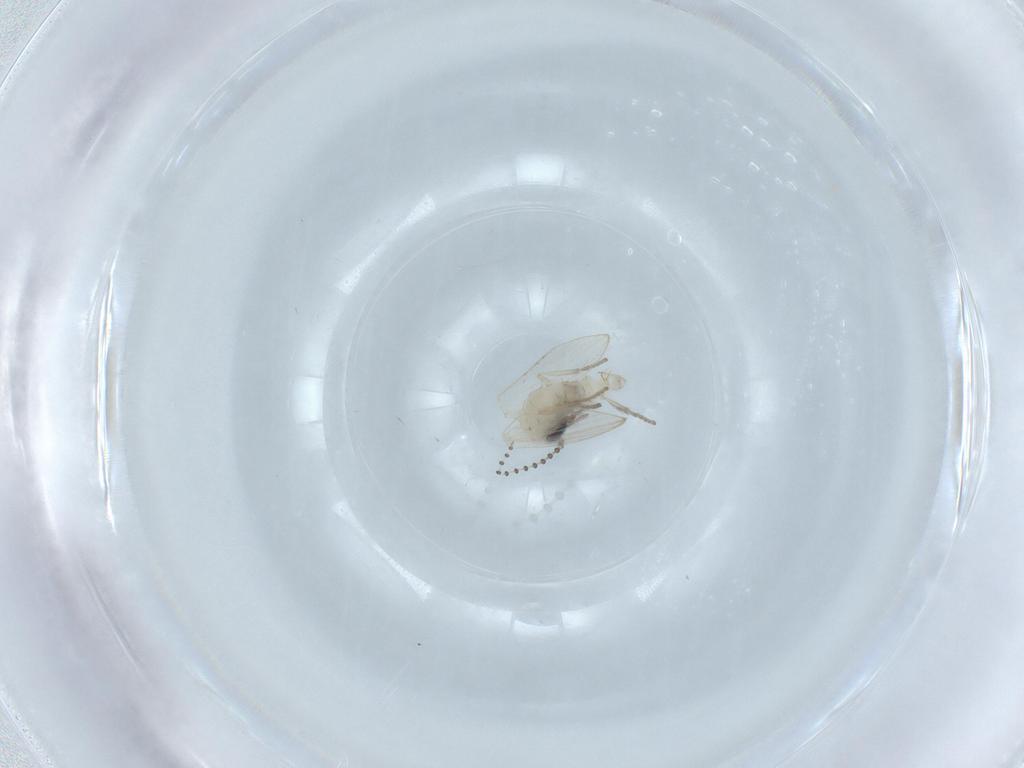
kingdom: Animalia
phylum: Arthropoda
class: Insecta
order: Diptera
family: Psychodidae
